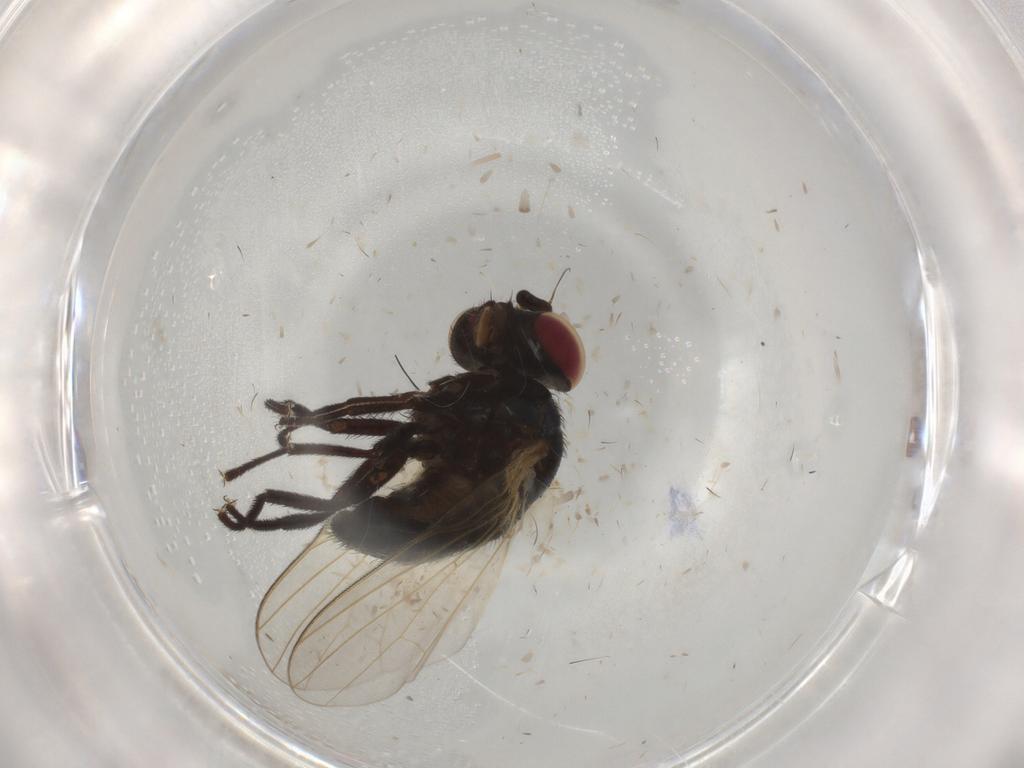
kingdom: Animalia
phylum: Arthropoda
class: Insecta
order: Diptera
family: Lonchaeidae
